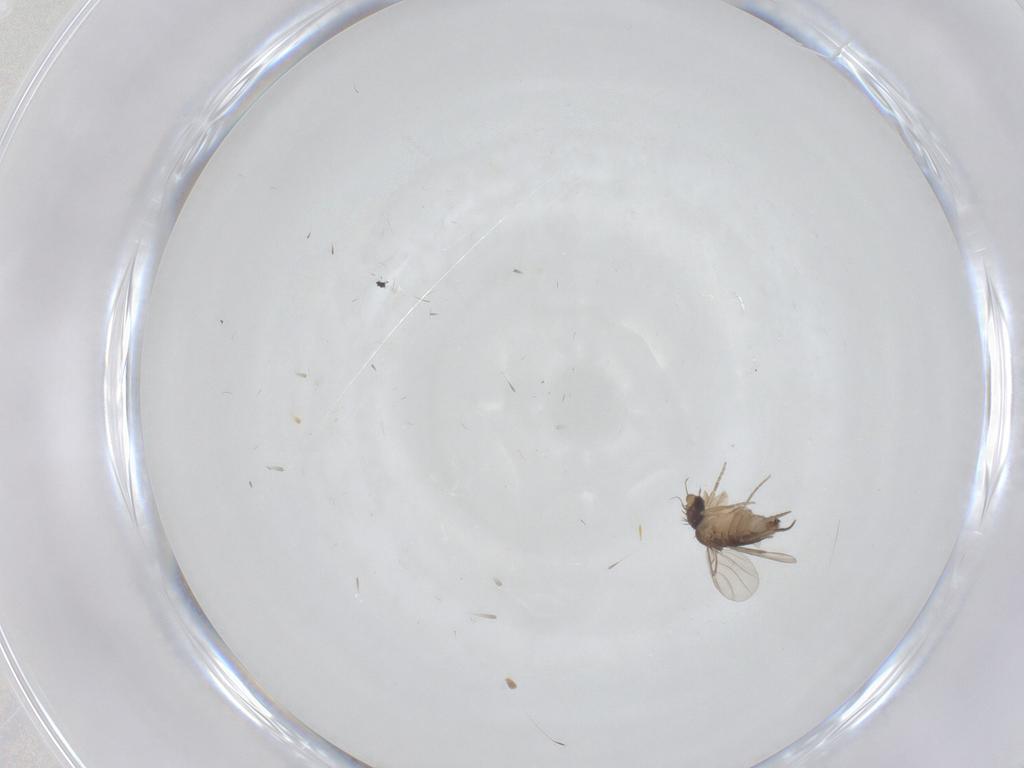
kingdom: Animalia
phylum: Arthropoda
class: Insecta
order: Diptera
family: Phoridae
